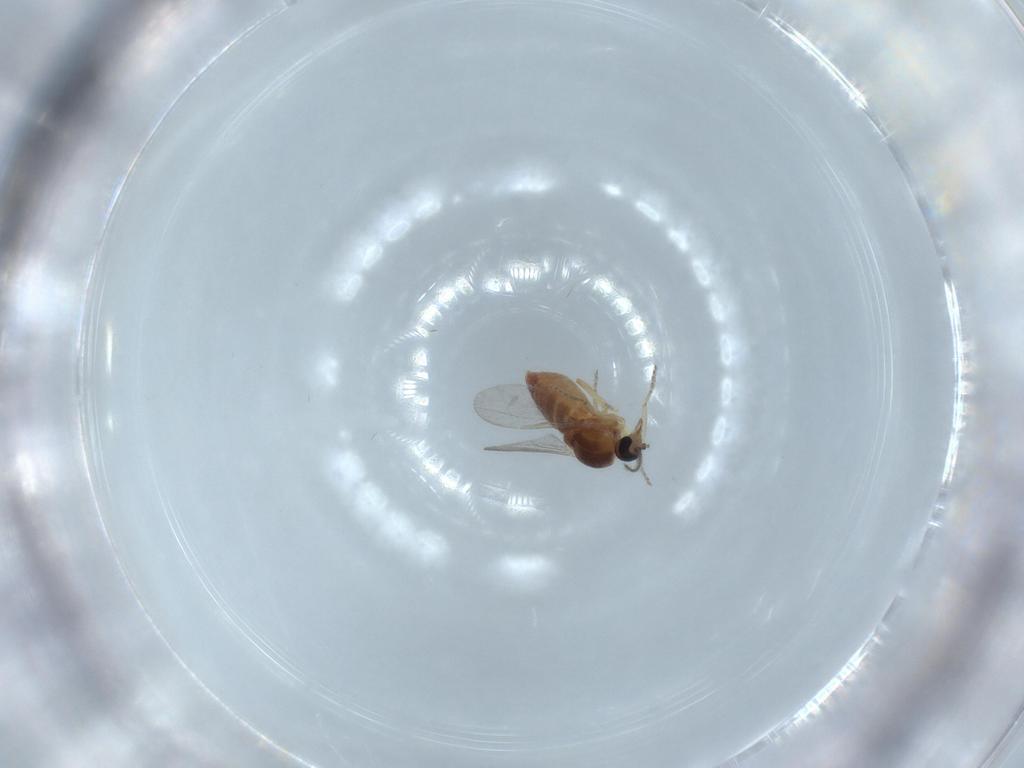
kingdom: Animalia
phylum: Arthropoda
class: Insecta
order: Diptera
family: Ceratopogonidae
